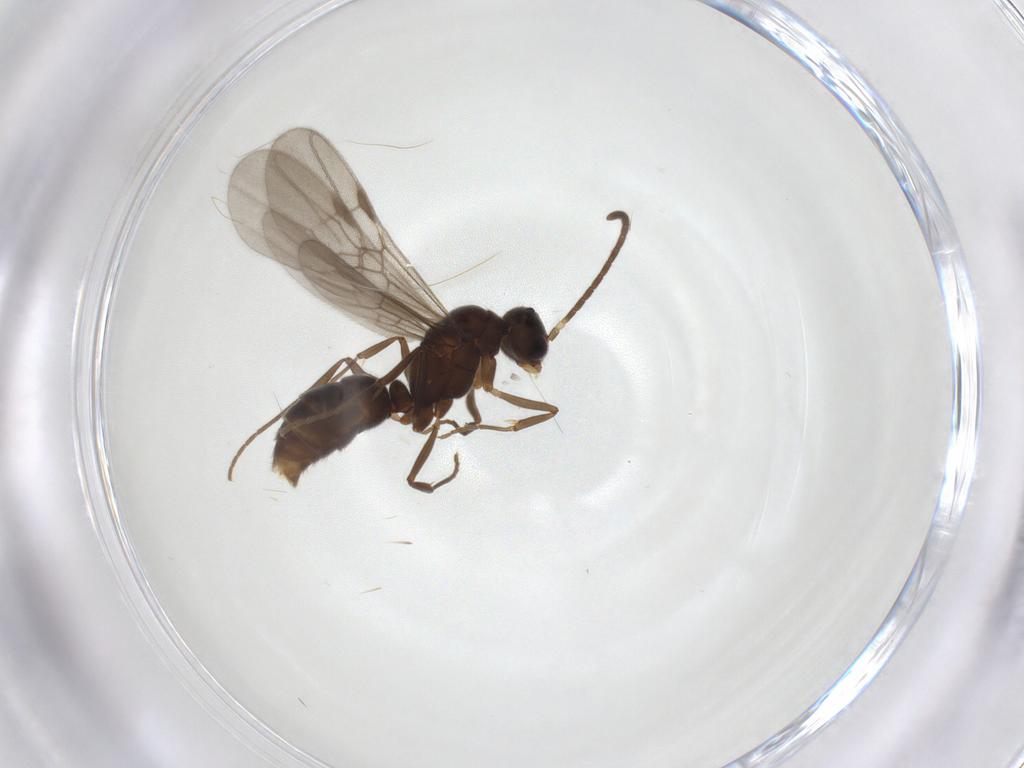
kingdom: Animalia
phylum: Arthropoda
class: Insecta
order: Hymenoptera
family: Formicidae
